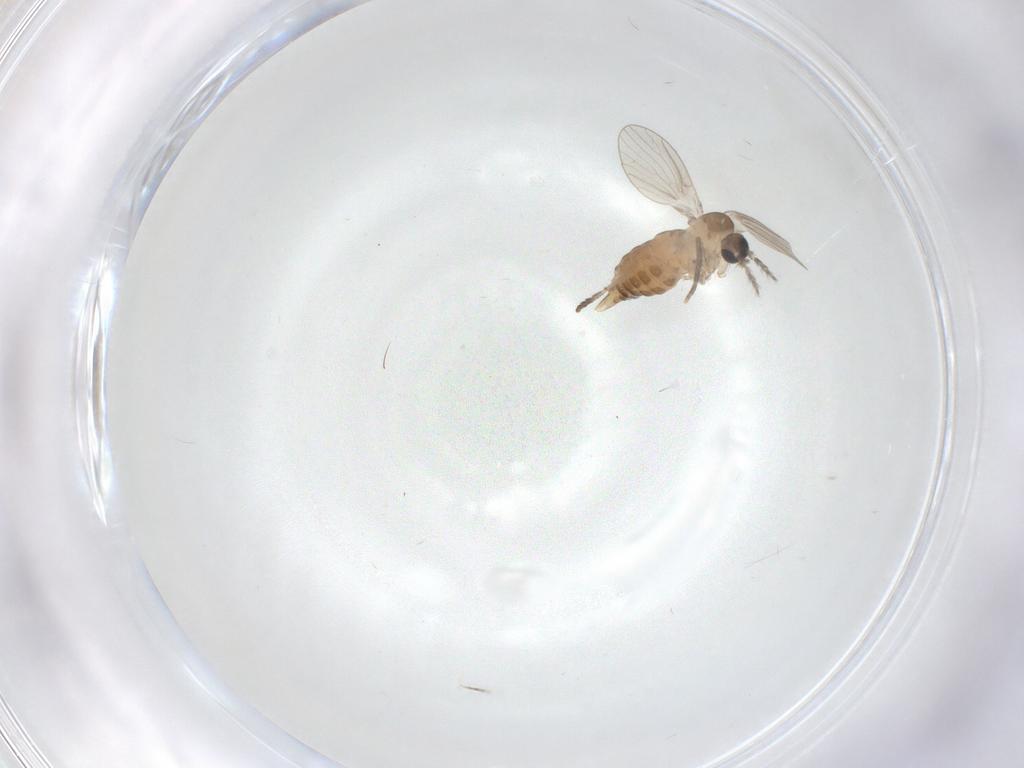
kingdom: Animalia
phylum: Arthropoda
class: Insecta
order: Diptera
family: Psychodidae
